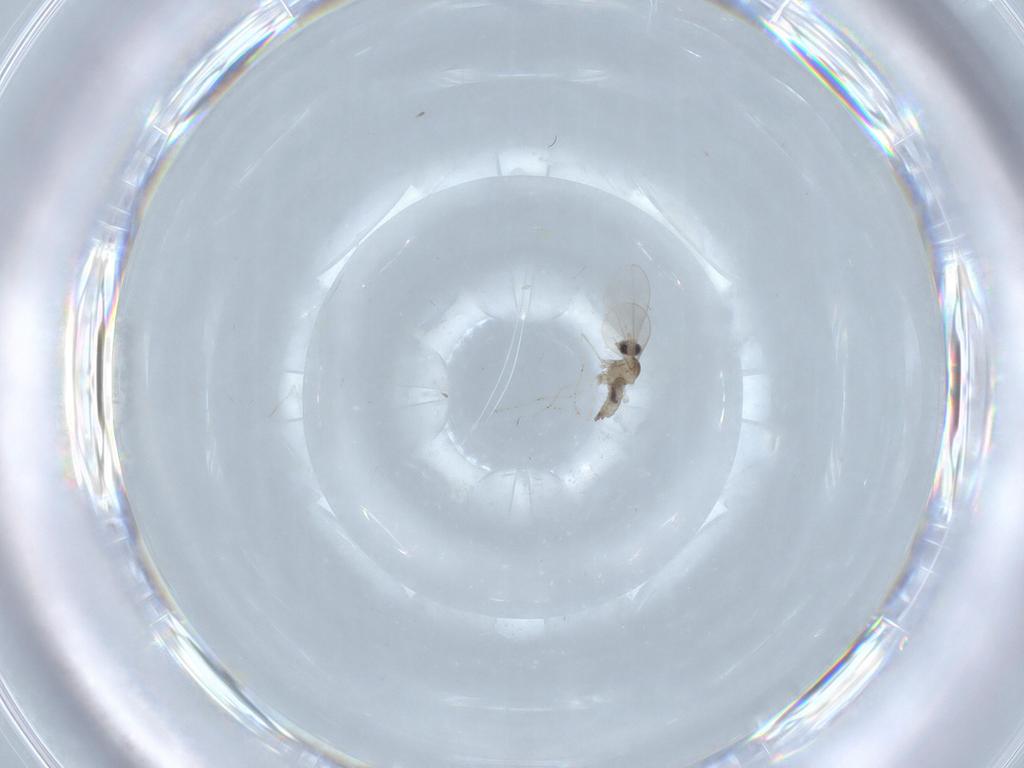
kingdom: Animalia
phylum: Arthropoda
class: Insecta
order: Diptera
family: Cecidomyiidae
